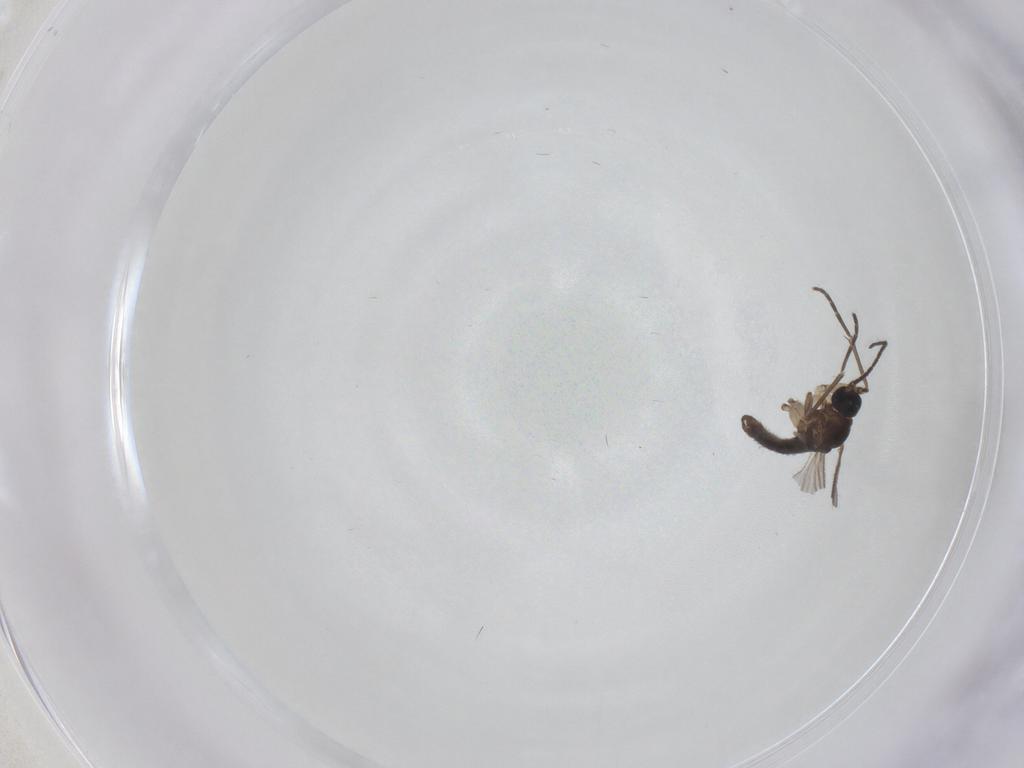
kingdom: Animalia
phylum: Arthropoda
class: Insecta
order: Diptera
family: Sciaridae
